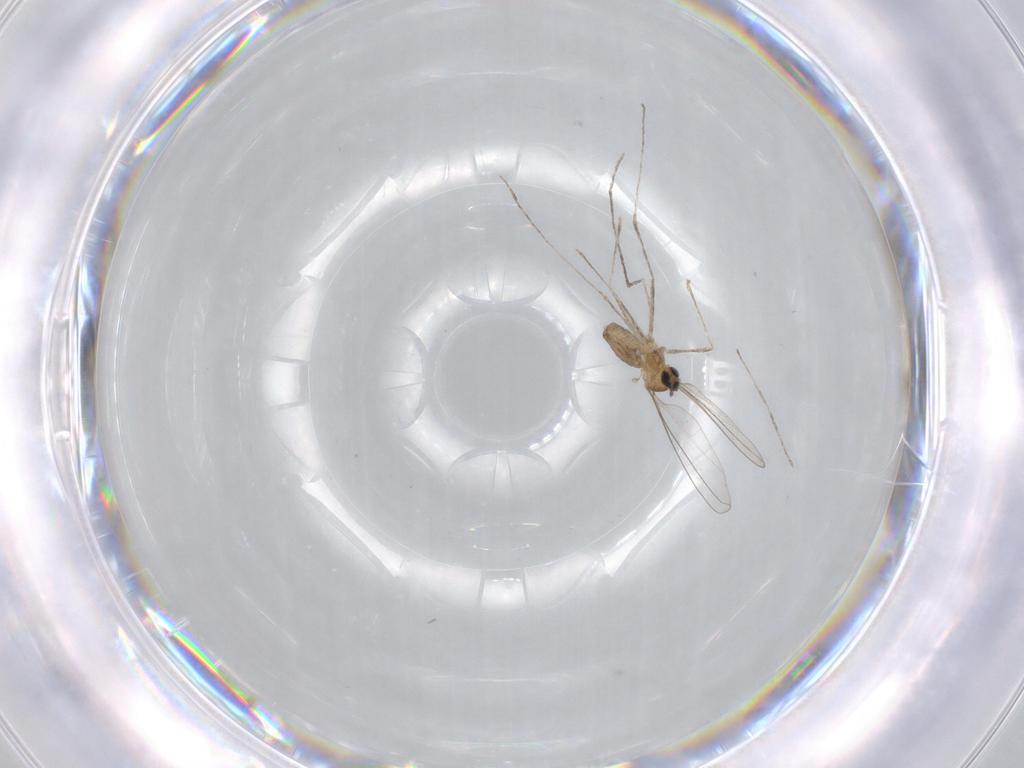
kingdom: Animalia
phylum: Arthropoda
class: Insecta
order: Diptera
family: Cecidomyiidae
